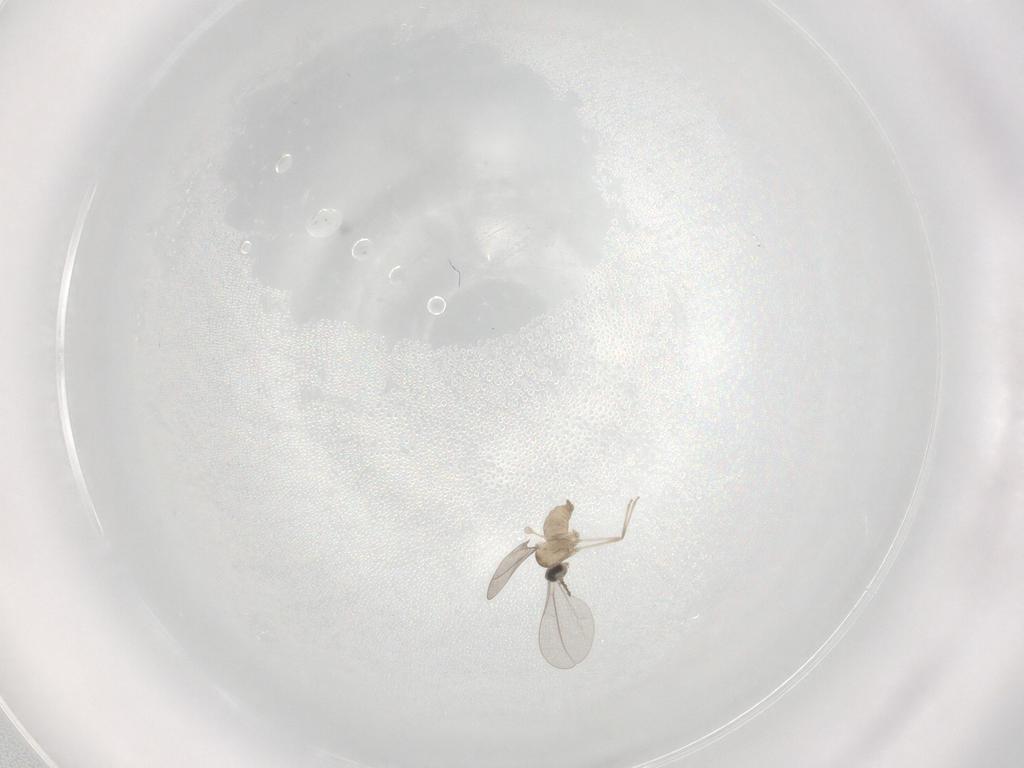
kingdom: Animalia
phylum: Arthropoda
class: Insecta
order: Diptera
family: Cecidomyiidae
